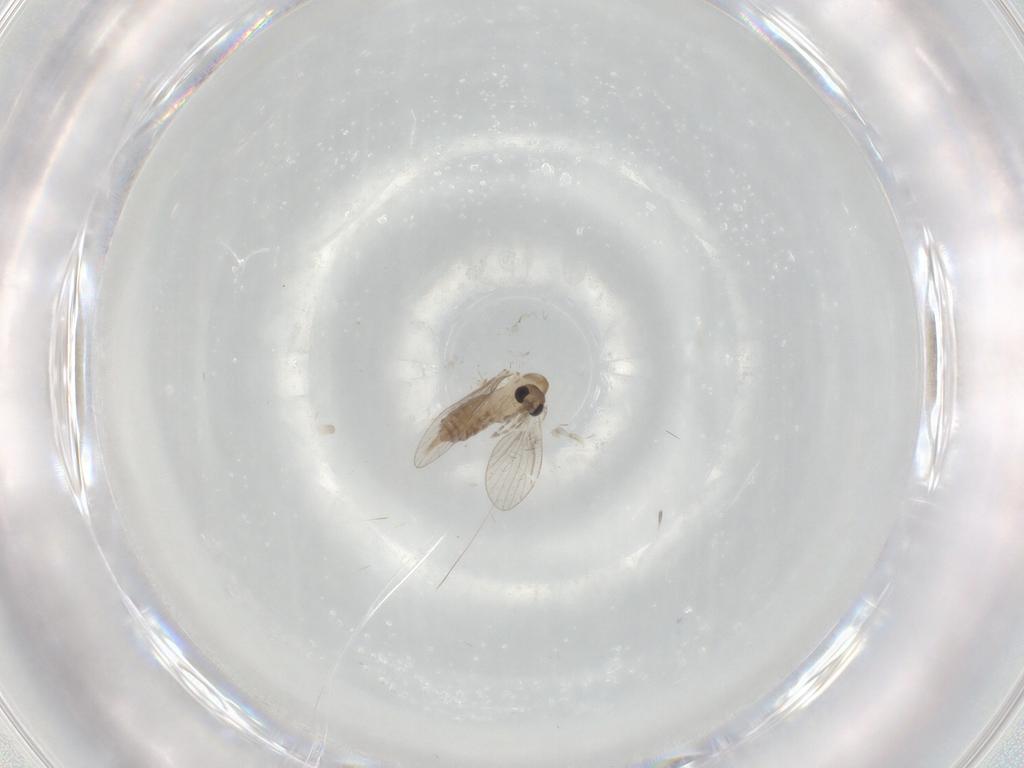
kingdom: Animalia
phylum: Arthropoda
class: Insecta
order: Diptera
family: Psychodidae
